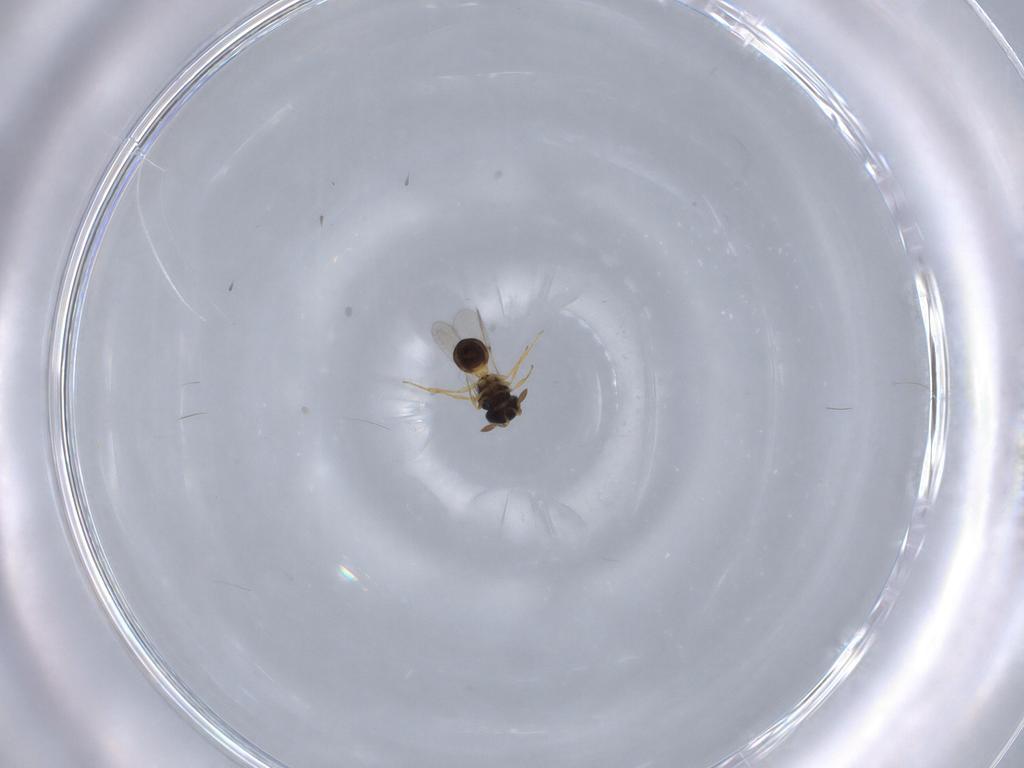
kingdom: Animalia
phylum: Arthropoda
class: Insecta
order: Hymenoptera
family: Scelionidae
